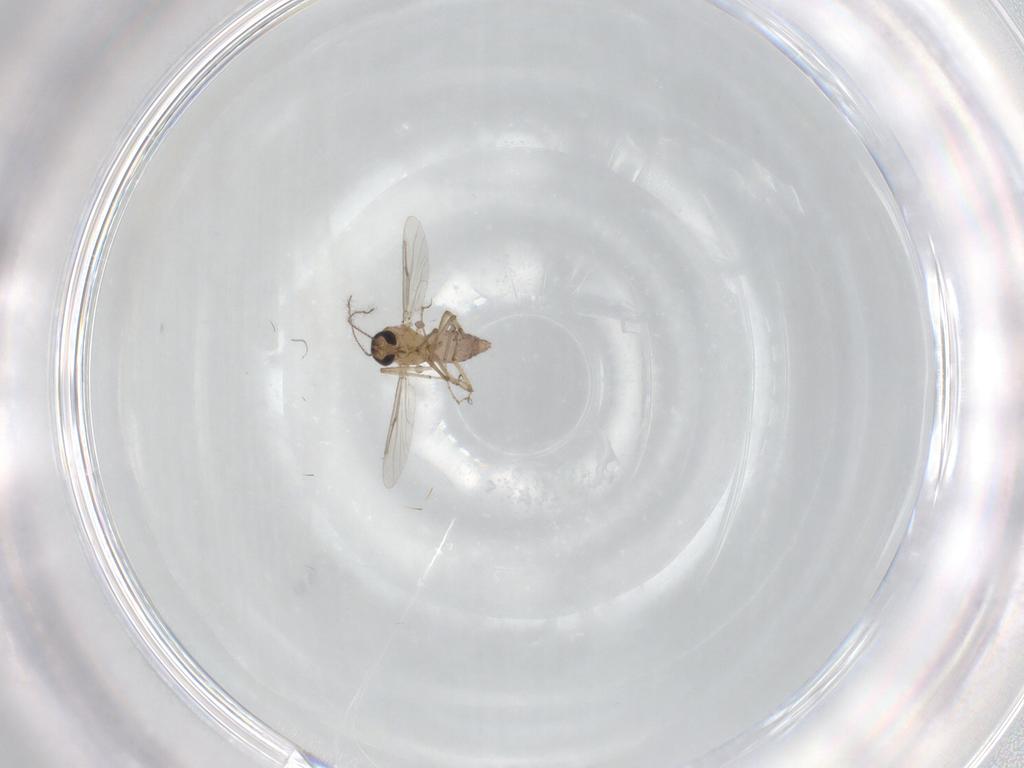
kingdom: Animalia
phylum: Arthropoda
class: Insecta
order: Diptera
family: Ceratopogonidae
